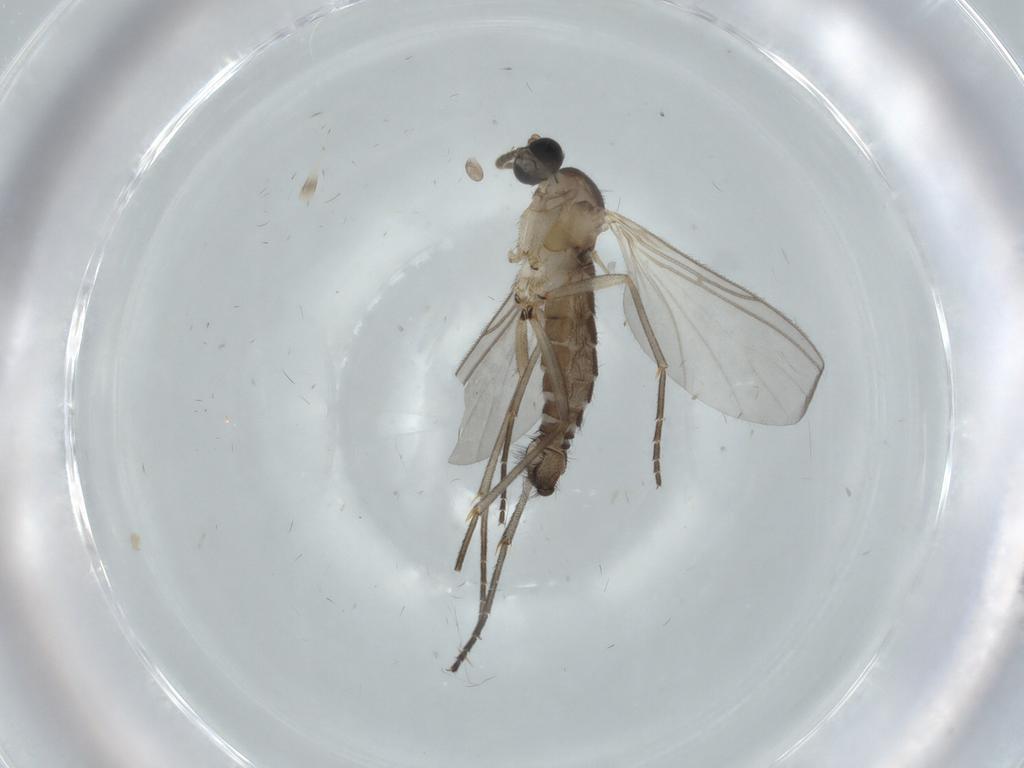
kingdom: Animalia
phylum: Arthropoda
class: Insecta
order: Diptera
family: Sciaridae
